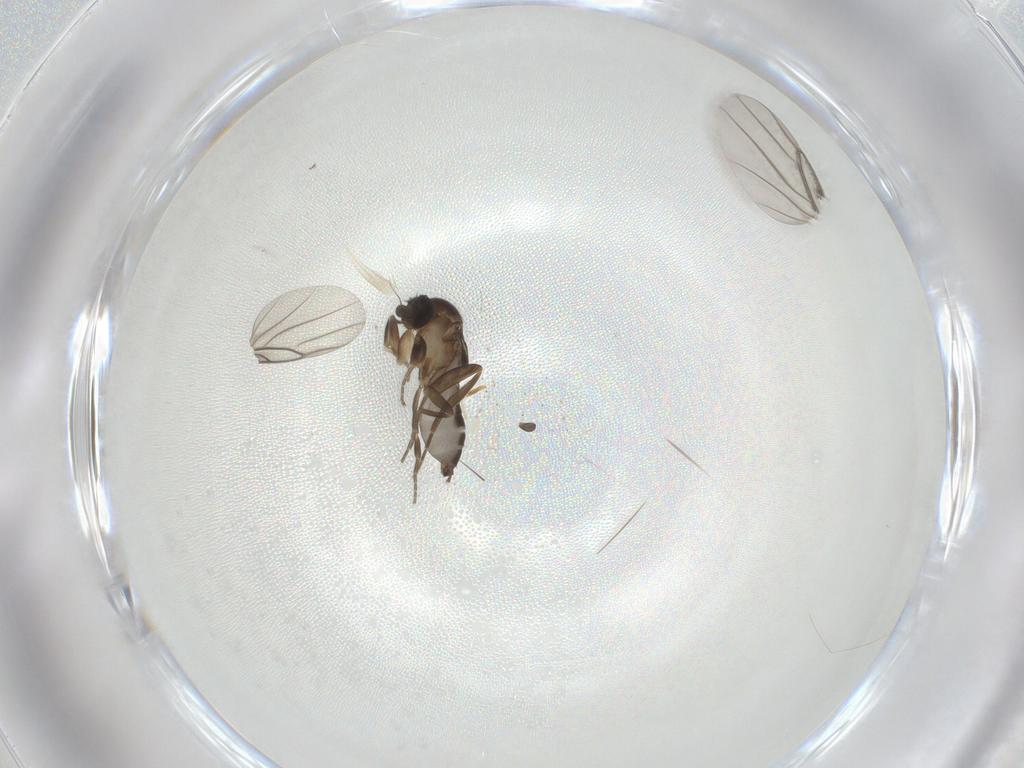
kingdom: Animalia
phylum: Arthropoda
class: Insecta
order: Diptera
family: Phoridae
